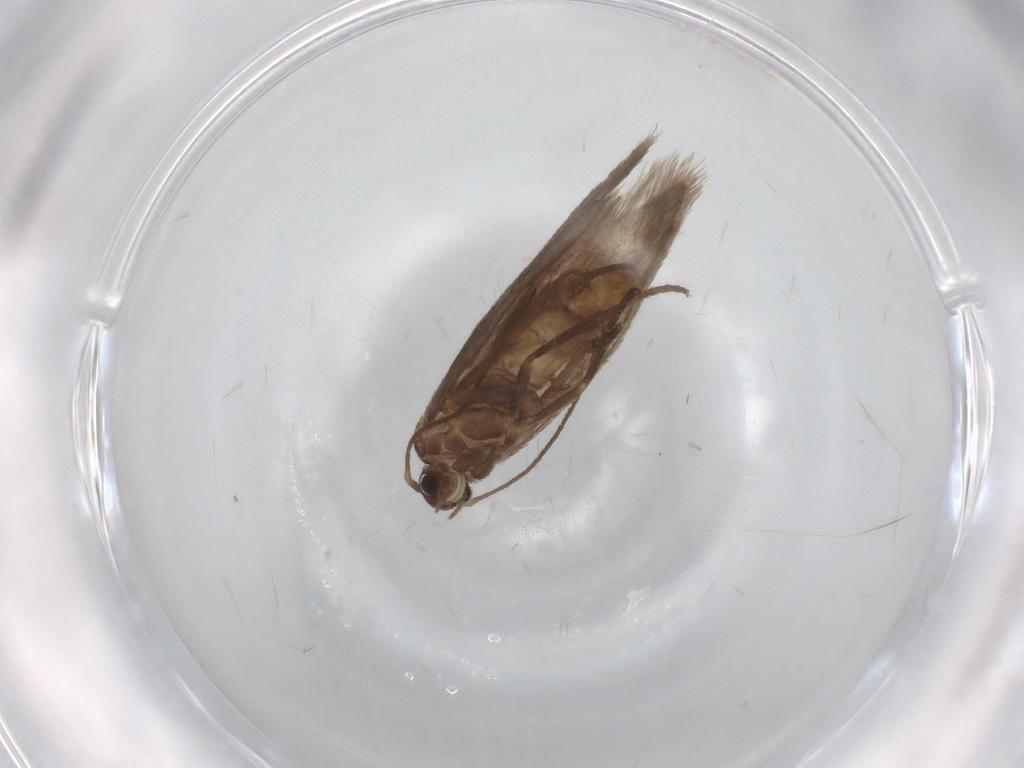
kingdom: Animalia
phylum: Arthropoda
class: Insecta
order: Lepidoptera
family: Limacodidae
